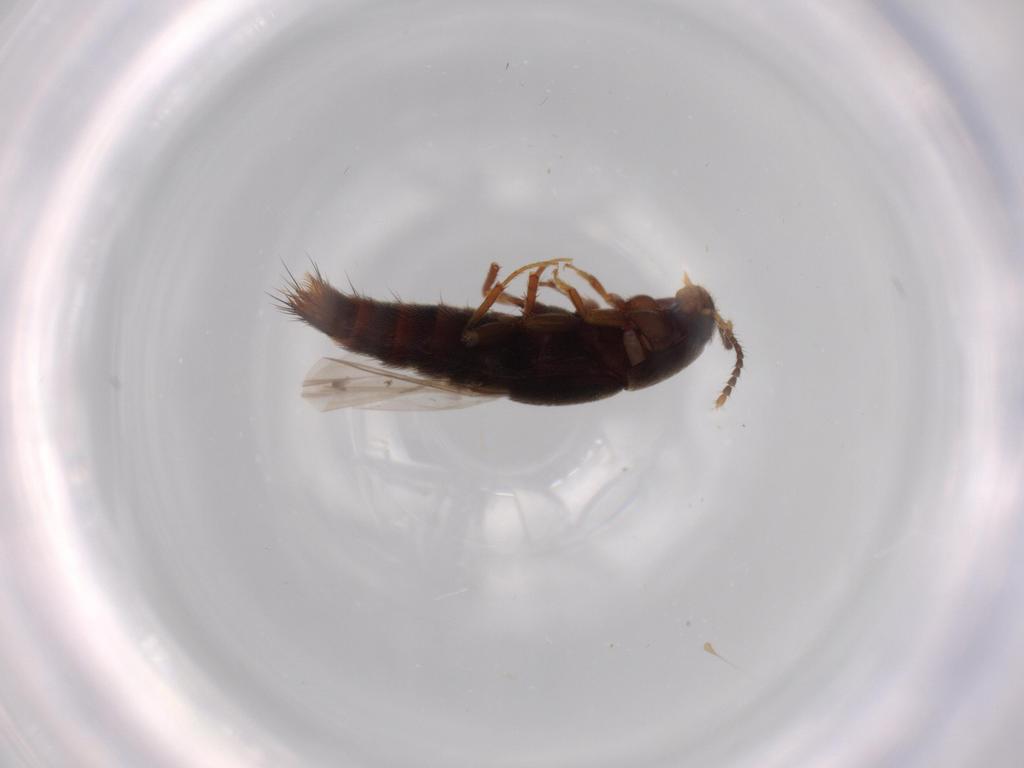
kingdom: Animalia
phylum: Arthropoda
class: Insecta
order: Coleoptera
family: Staphylinidae
